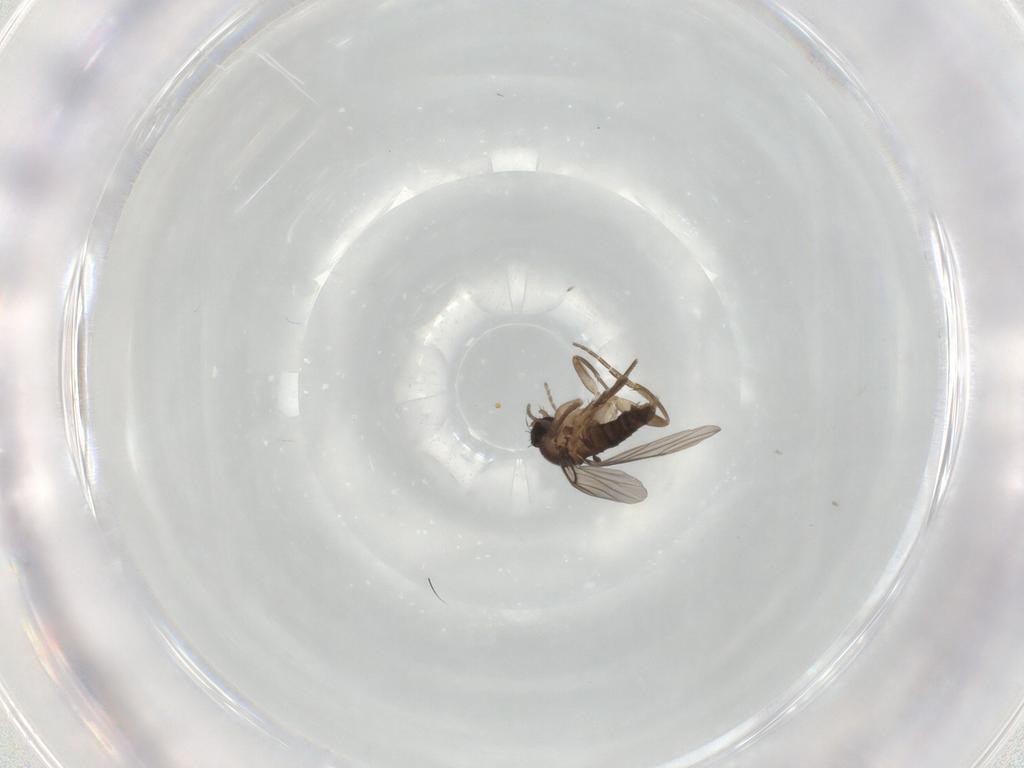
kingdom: Animalia
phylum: Arthropoda
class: Insecta
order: Diptera
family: Phoridae
